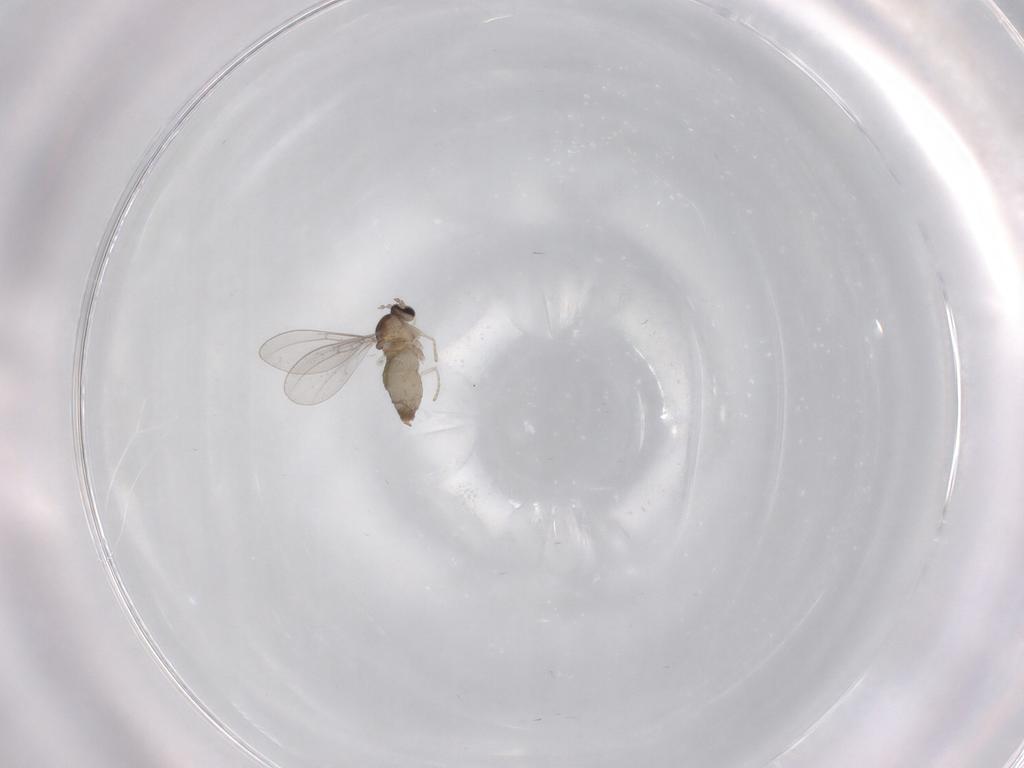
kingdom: Animalia
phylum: Arthropoda
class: Insecta
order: Diptera
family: Cecidomyiidae
